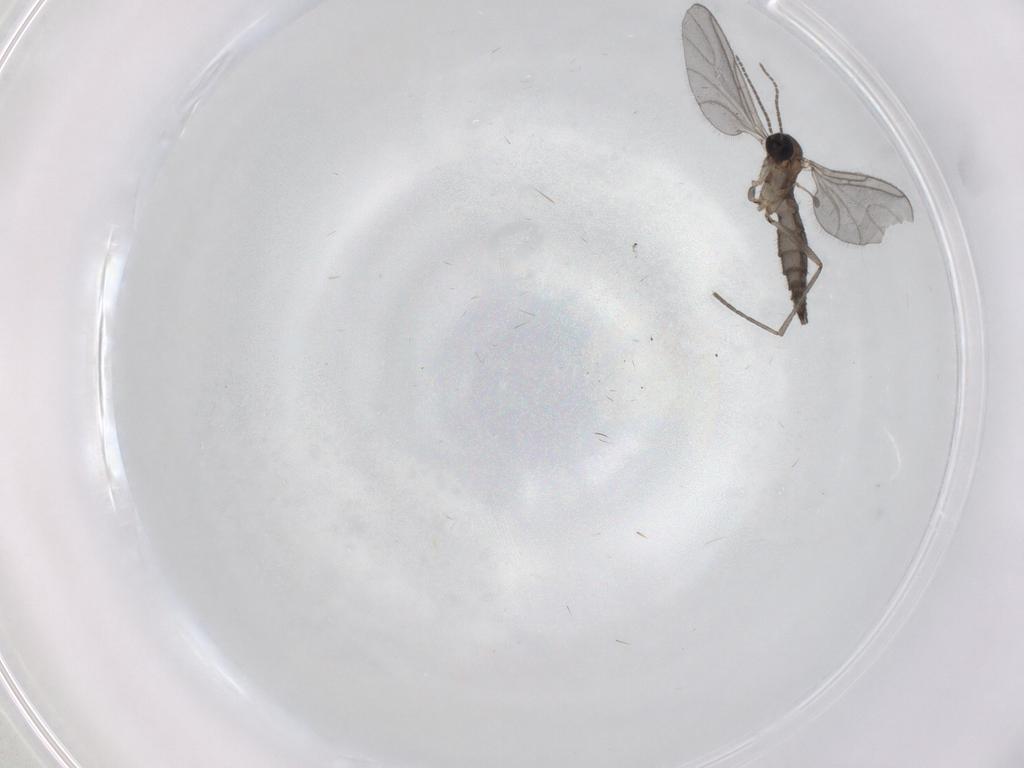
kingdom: Animalia
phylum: Arthropoda
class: Insecta
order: Diptera
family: Sciaridae
